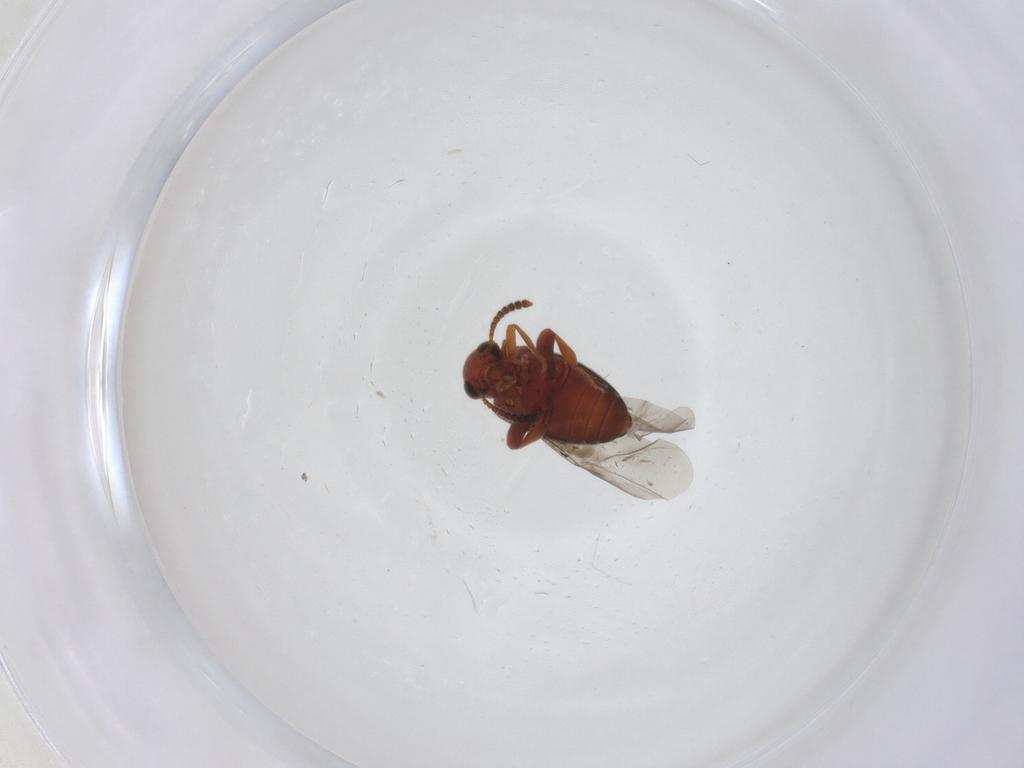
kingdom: Animalia
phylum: Arthropoda
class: Insecta
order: Coleoptera
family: Aderidae
